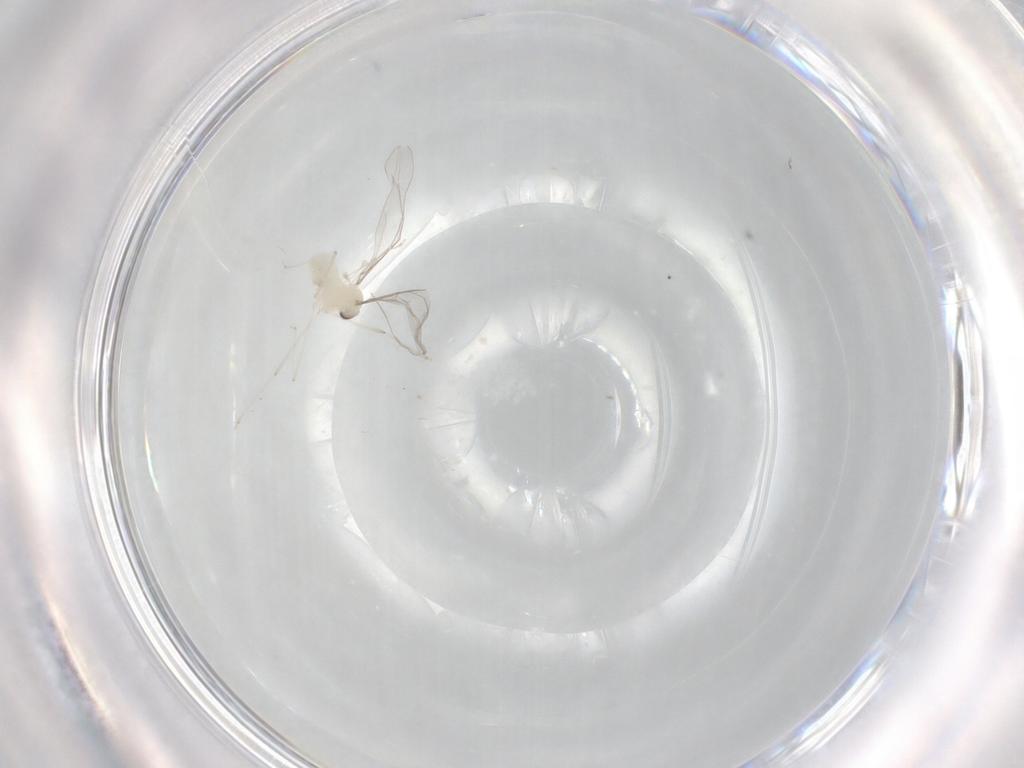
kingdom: Animalia
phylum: Arthropoda
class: Insecta
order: Diptera
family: Cecidomyiidae
